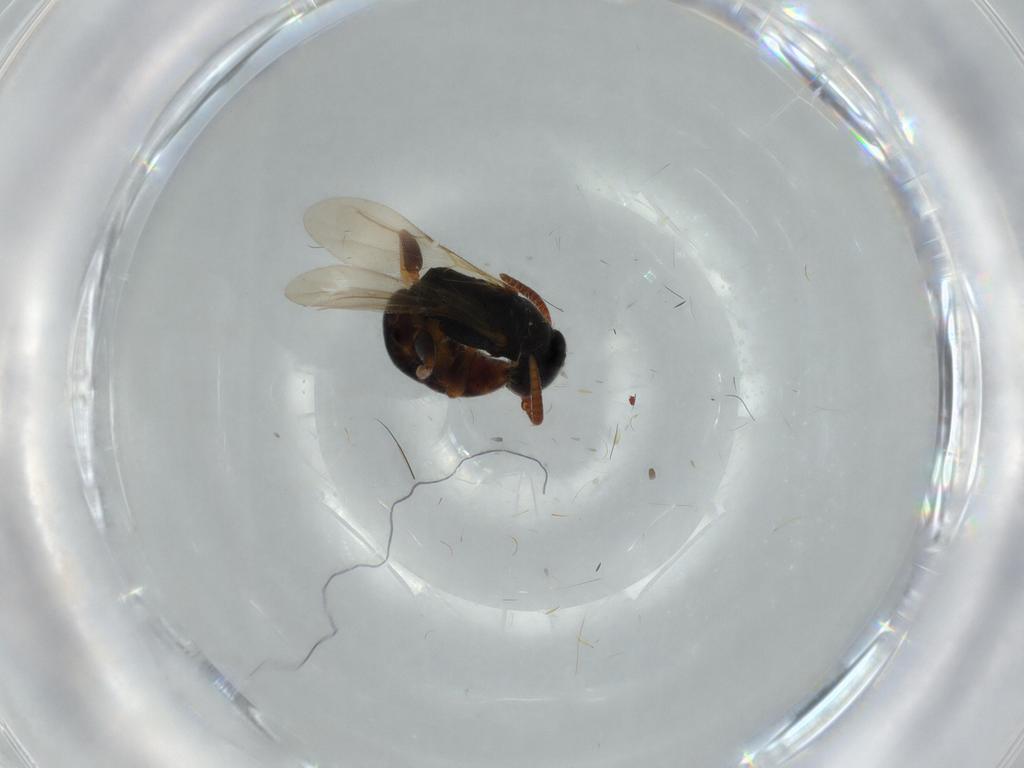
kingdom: Animalia
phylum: Arthropoda
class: Insecta
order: Hymenoptera
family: Bethylidae
